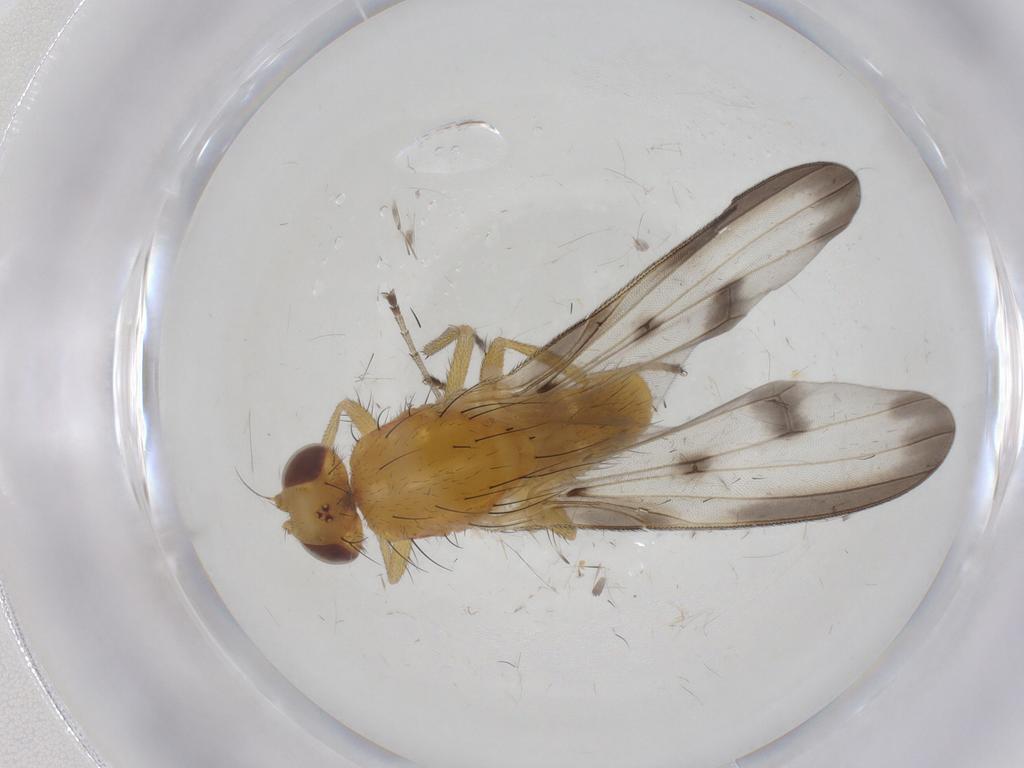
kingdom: Animalia
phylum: Arthropoda
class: Insecta
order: Diptera
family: Pallopteridae
